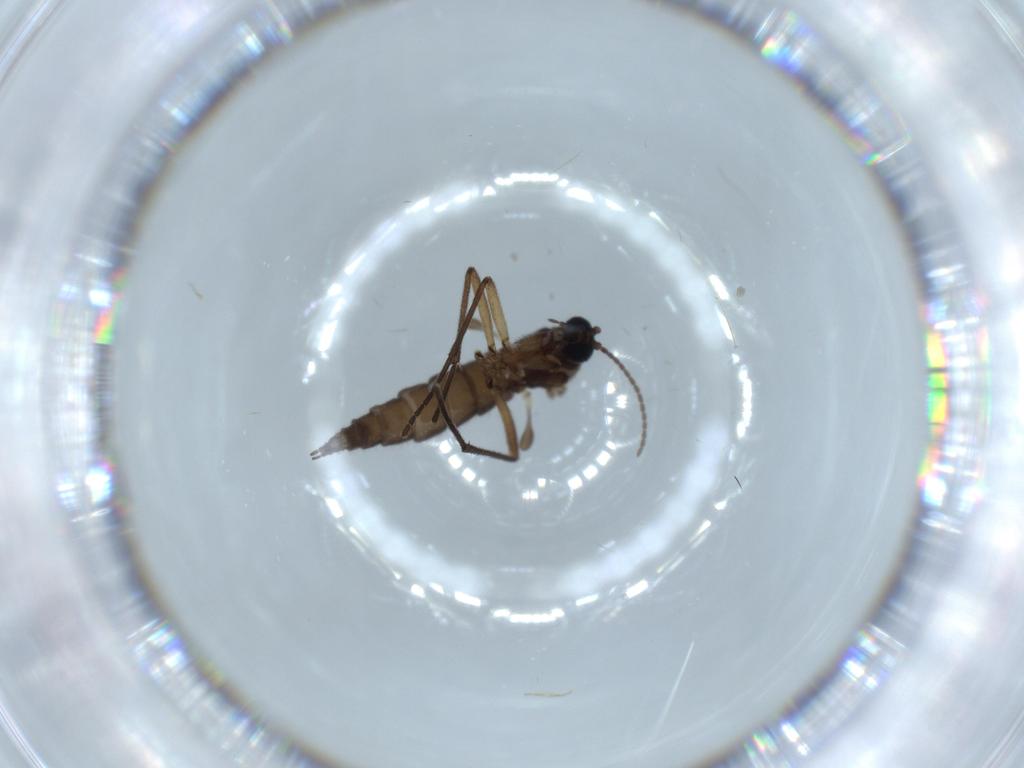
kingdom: Animalia
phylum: Arthropoda
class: Insecta
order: Diptera
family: Sciaridae
